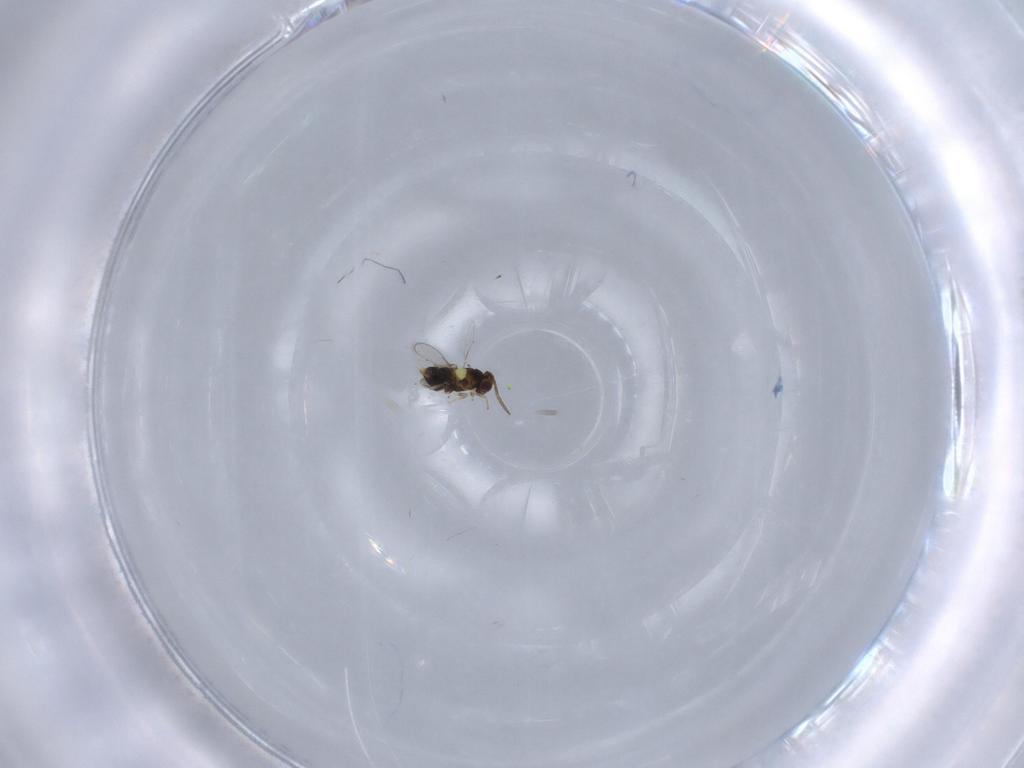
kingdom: Animalia
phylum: Arthropoda
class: Insecta
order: Hymenoptera
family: Aphelinidae
